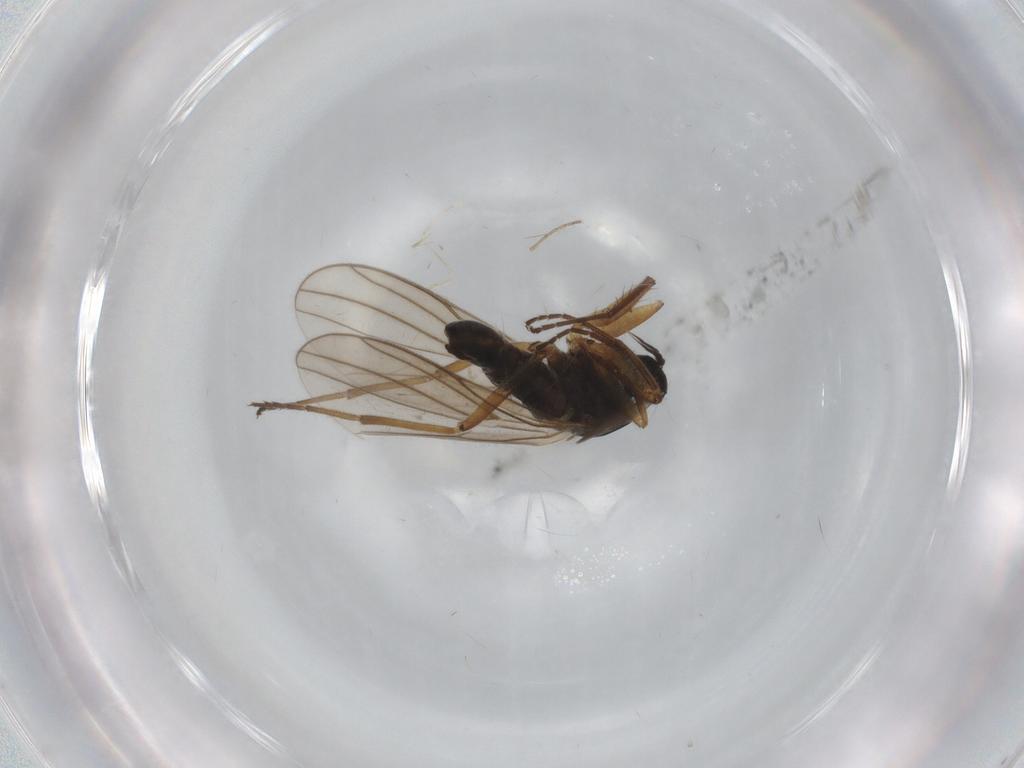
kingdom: Animalia
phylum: Arthropoda
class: Insecta
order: Diptera
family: Hybotidae
